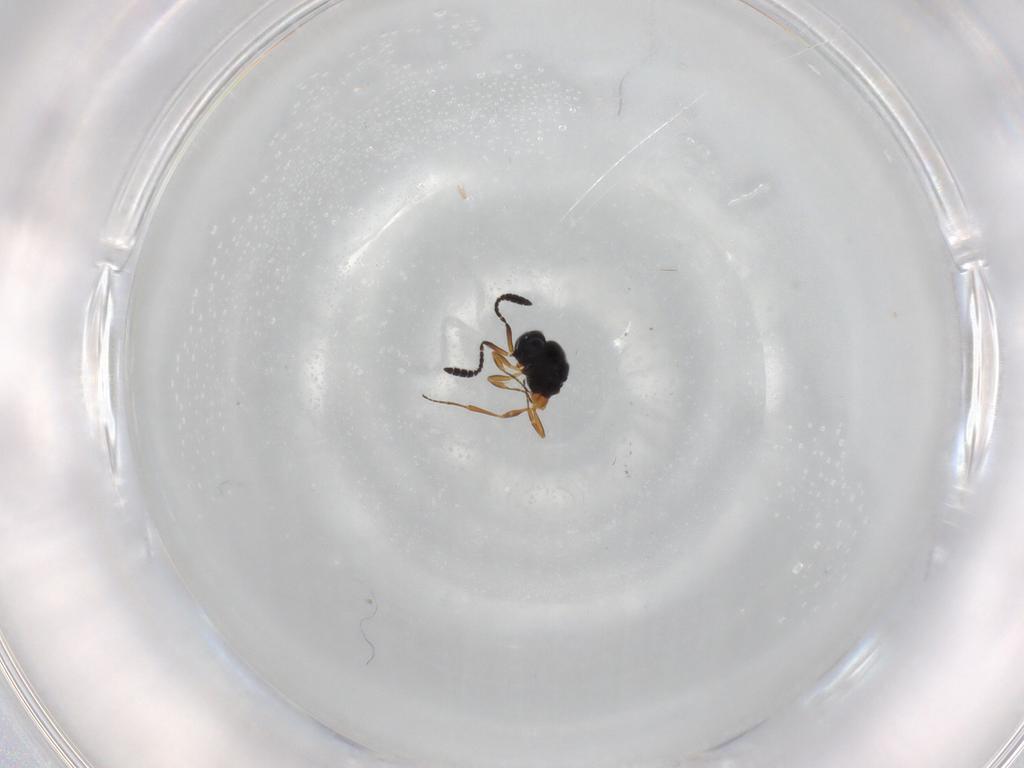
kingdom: Animalia
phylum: Arthropoda
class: Insecta
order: Hymenoptera
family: Scelionidae
